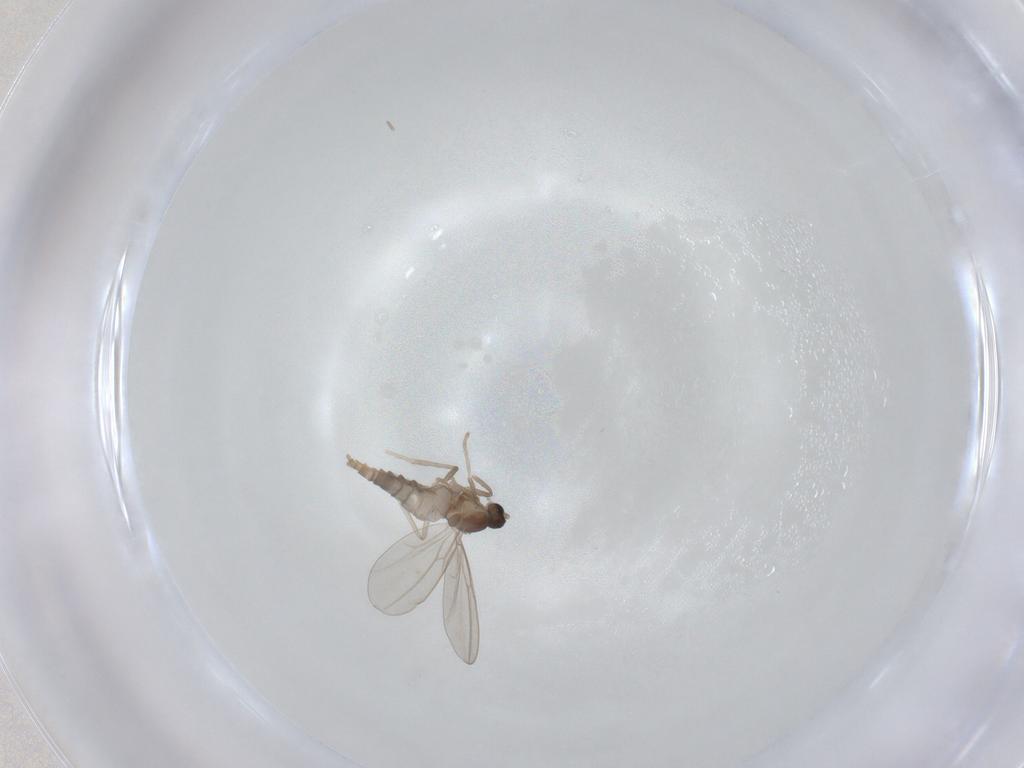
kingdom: Animalia
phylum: Arthropoda
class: Insecta
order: Diptera
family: Cecidomyiidae
